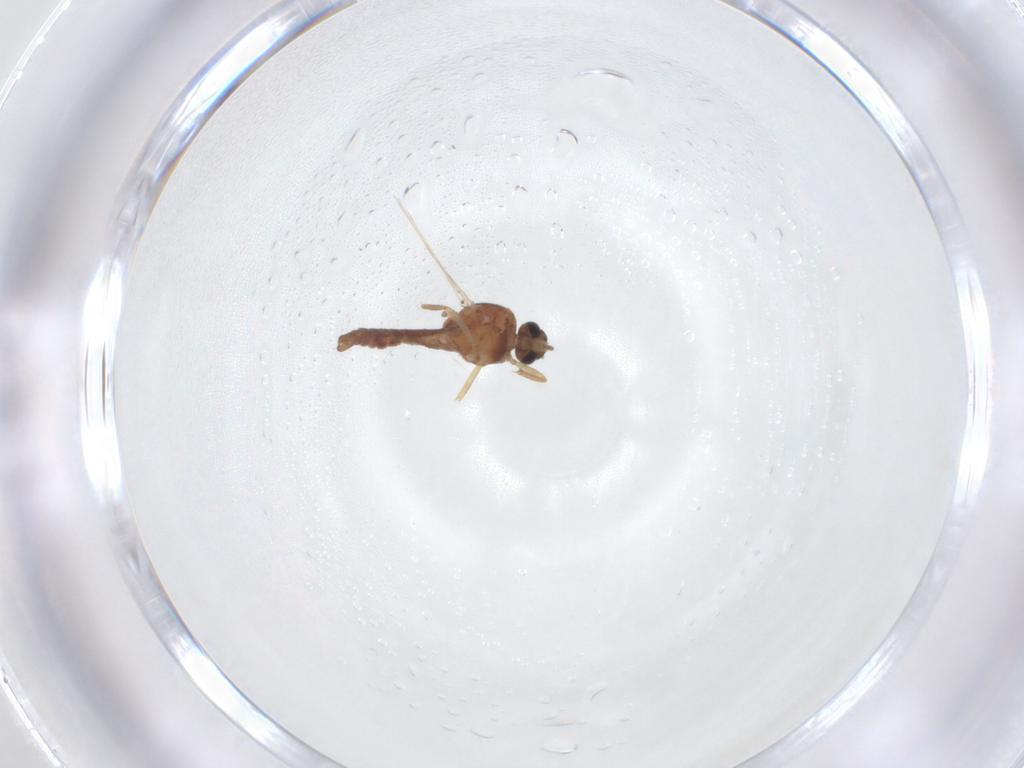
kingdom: Animalia
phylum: Arthropoda
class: Insecta
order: Diptera
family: Ceratopogonidae
